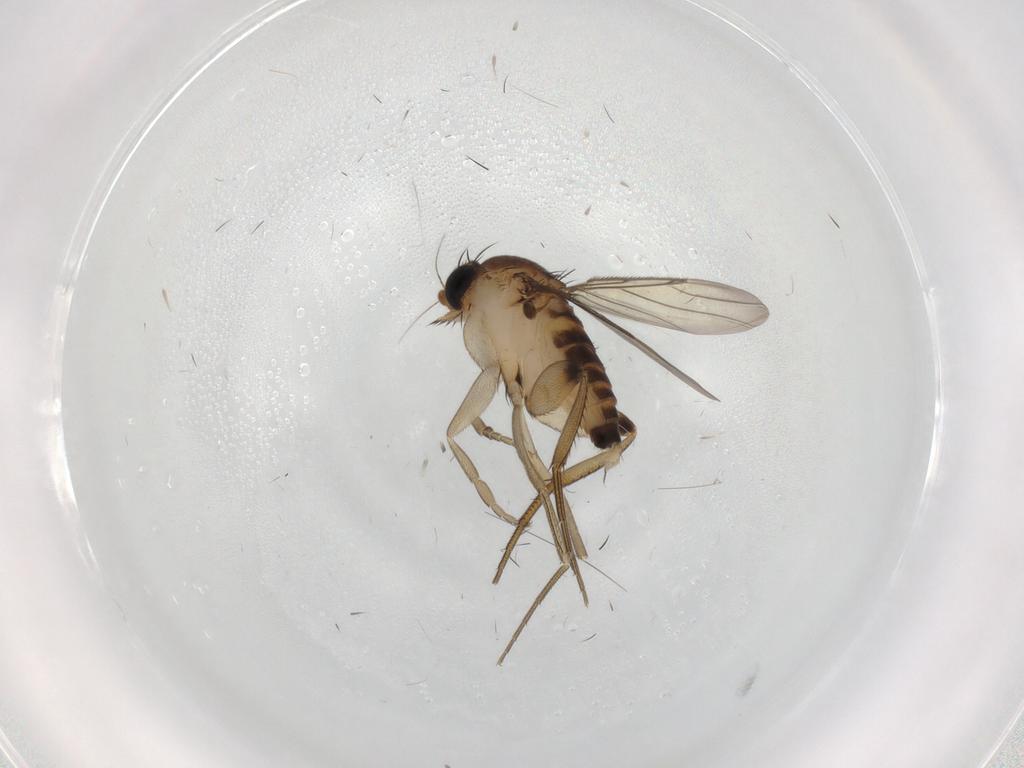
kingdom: Animalia
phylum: Arthropoda
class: Insecta
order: Diptera
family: Phoridae
